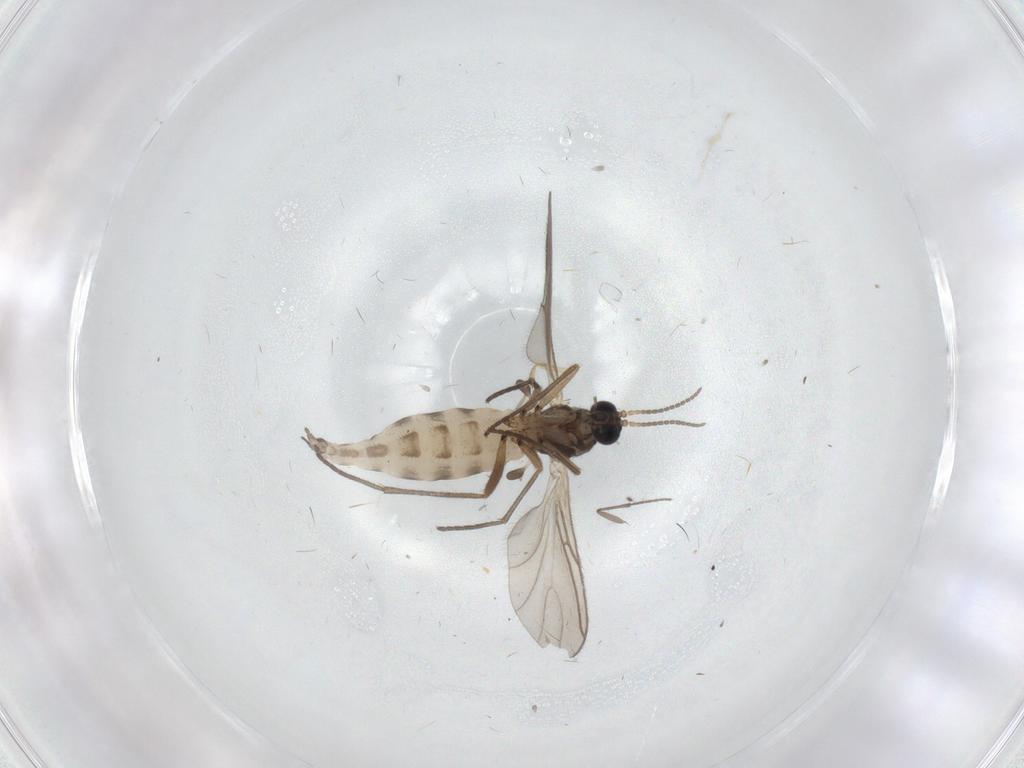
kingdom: Animalia
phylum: Arthropoda
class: Insecta
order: Diptera
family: Sciaridae
